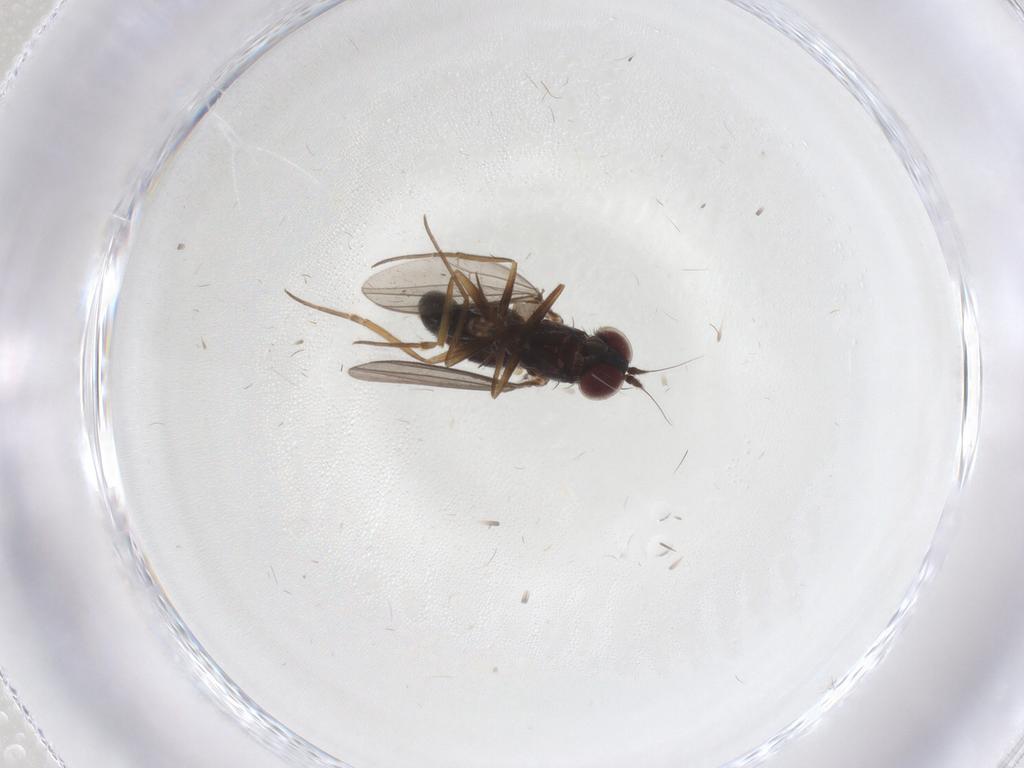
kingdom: Animalia
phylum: Arthropoda
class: Insecta
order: Diptera
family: Dolichopodidae
